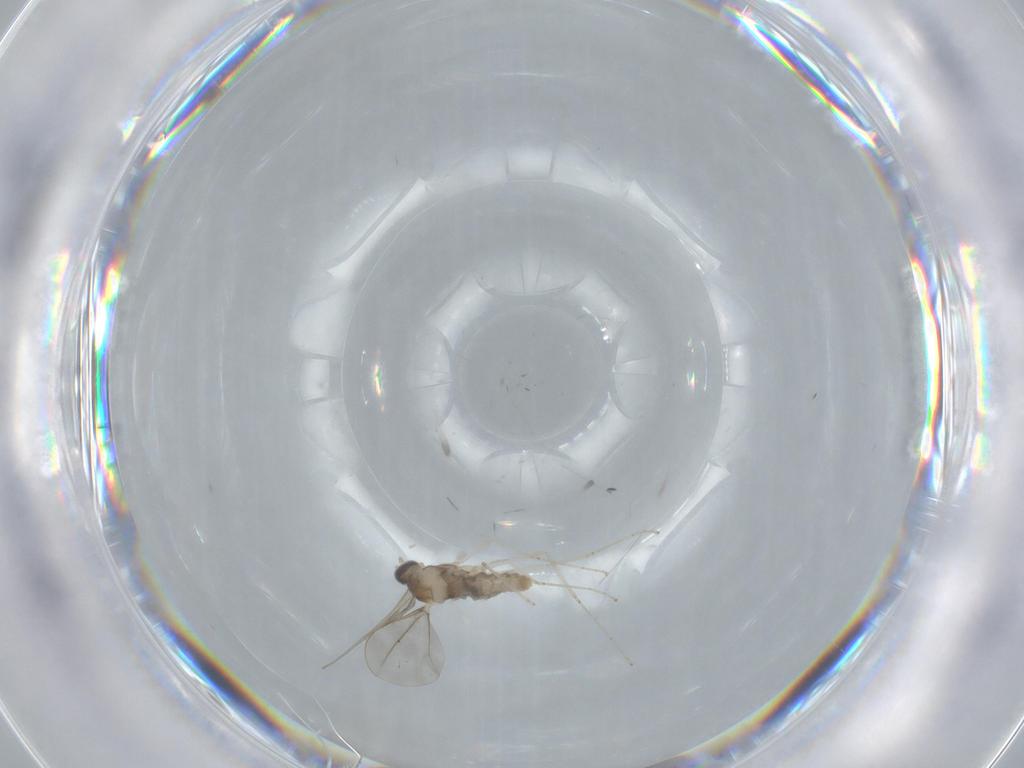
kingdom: Animalia
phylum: Arthropoda
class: Insecta
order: Diptera
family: Cecidomyiidae
